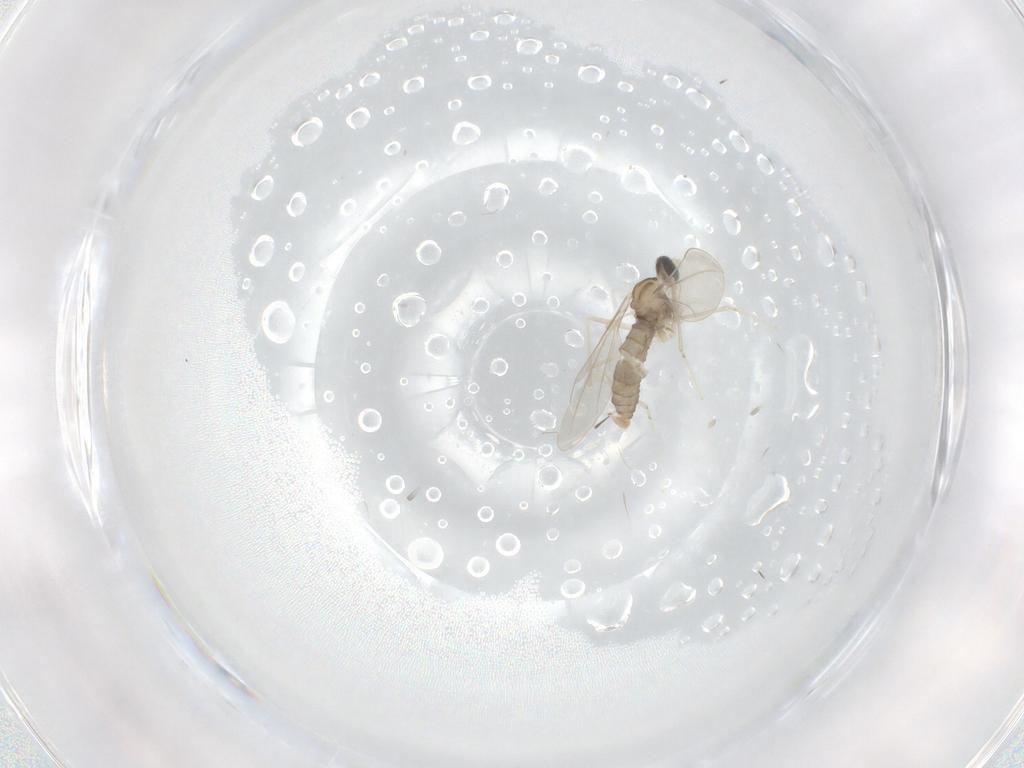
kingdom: Animalia
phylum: Arthropoda
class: Insecta
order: Diptera
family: Cecidomyiidae
